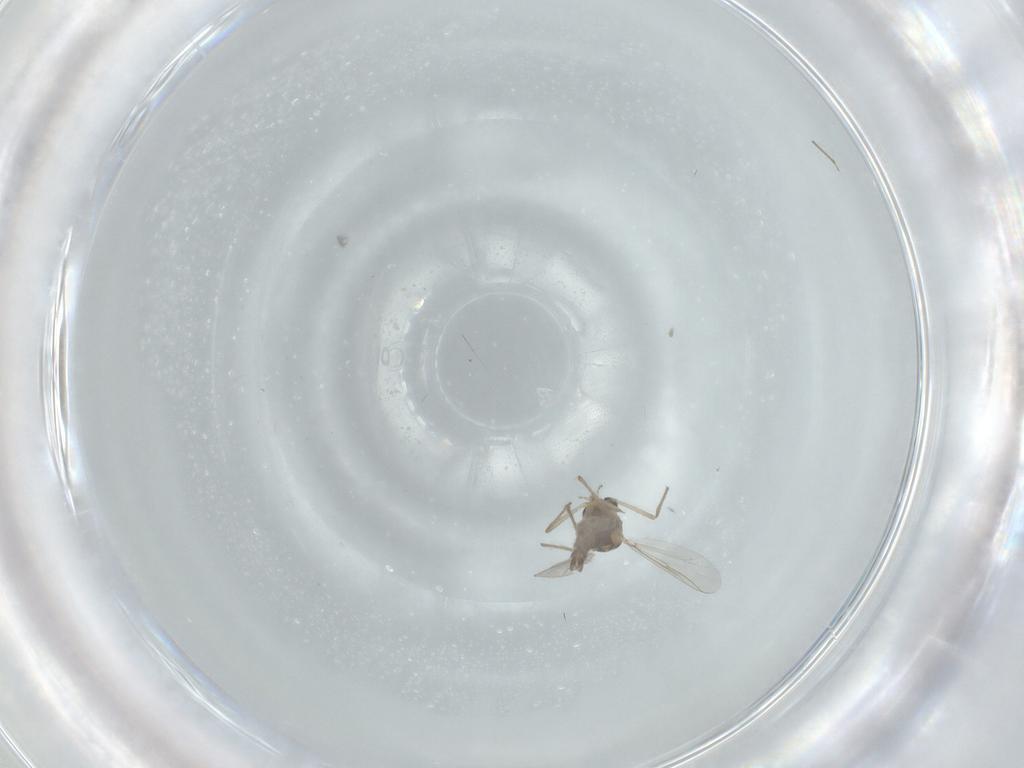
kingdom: Animalia
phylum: Arthropoda
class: Insecta
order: Diptera
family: Chironomidae
